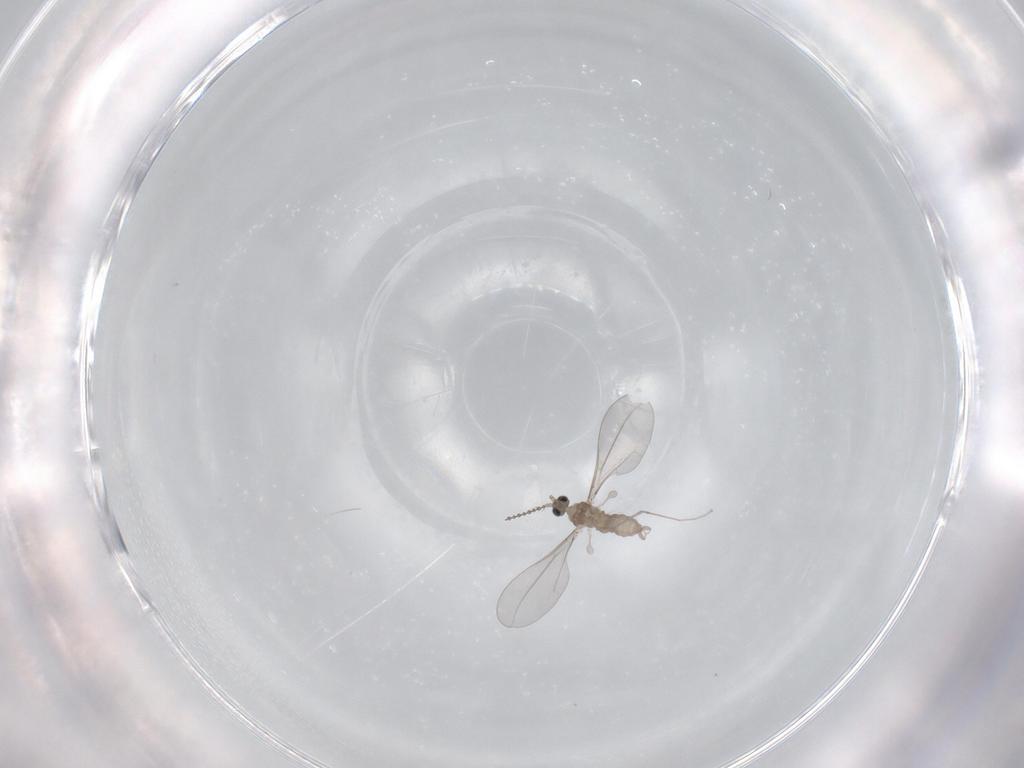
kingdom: Animalia
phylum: Arthropoda
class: Insecta
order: Diptera
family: Cecidomyiidae
